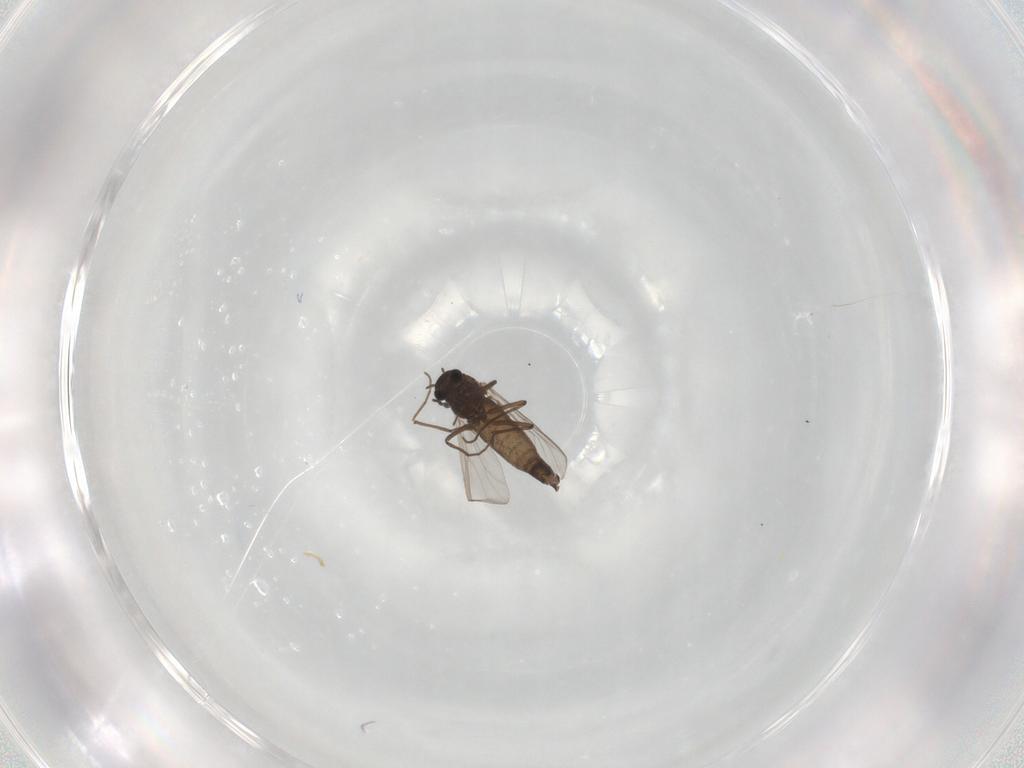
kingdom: Animalia
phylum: Arthropoda
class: Insecta
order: Diptera
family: Chironomidae
